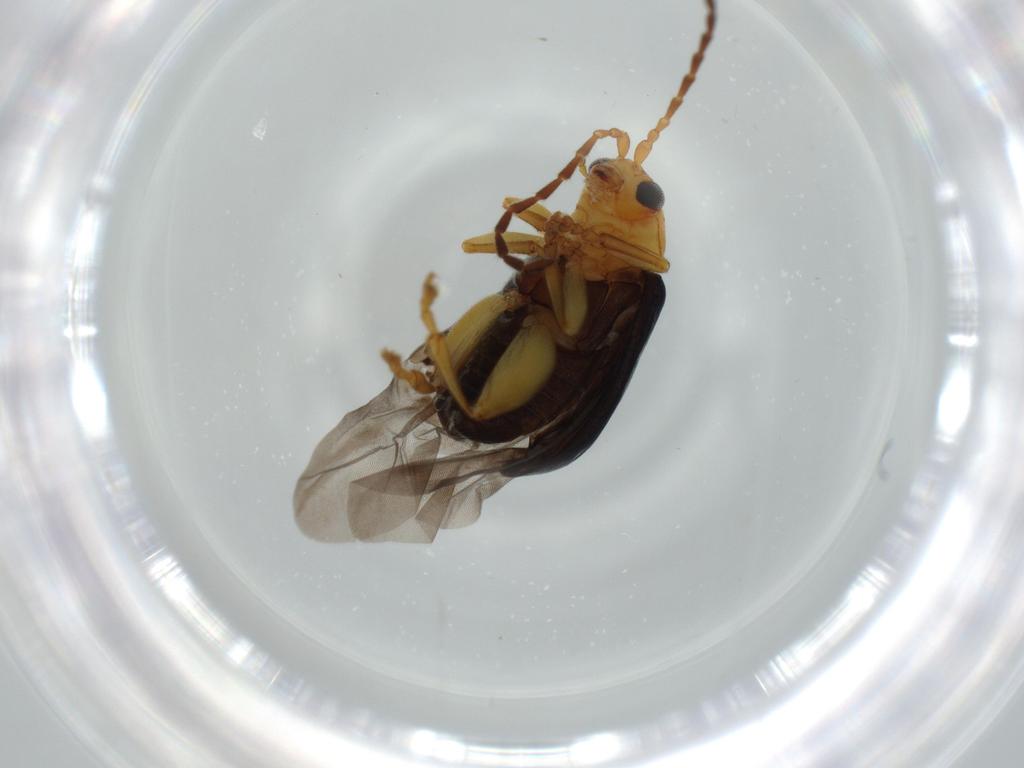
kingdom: Animalia
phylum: Arthropoda
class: Insecta
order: Coleoptera
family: Chrysomelidae
